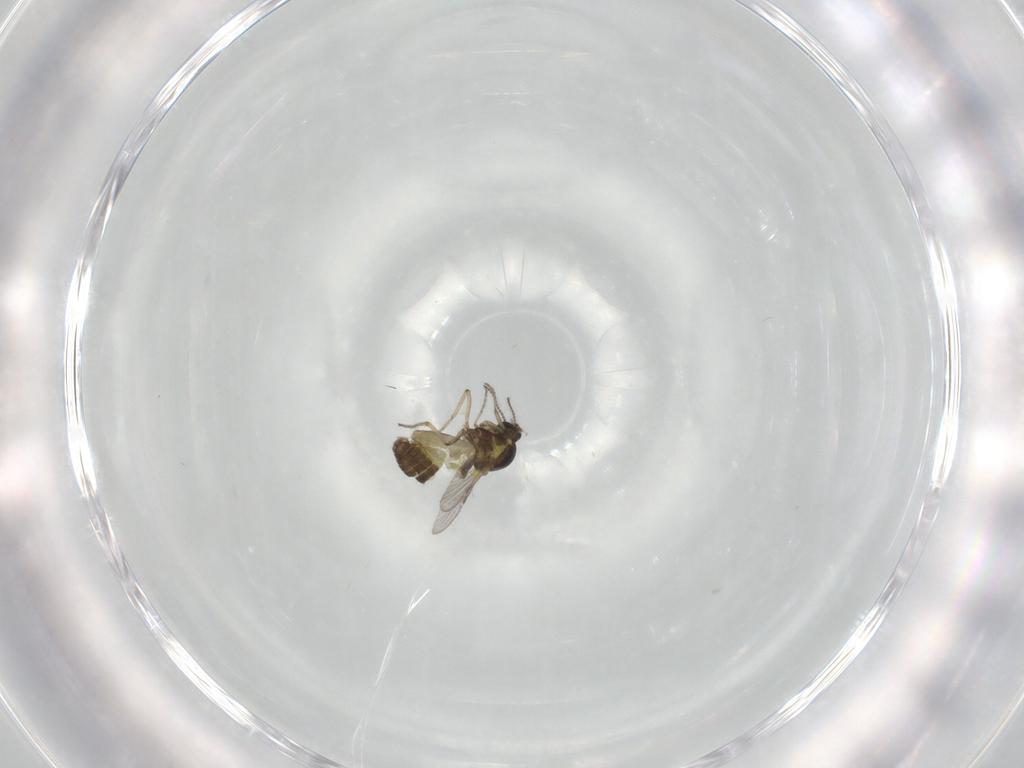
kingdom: Animalia
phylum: Arthropoda
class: Insecta
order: Diptera
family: Ceratopogonidae
